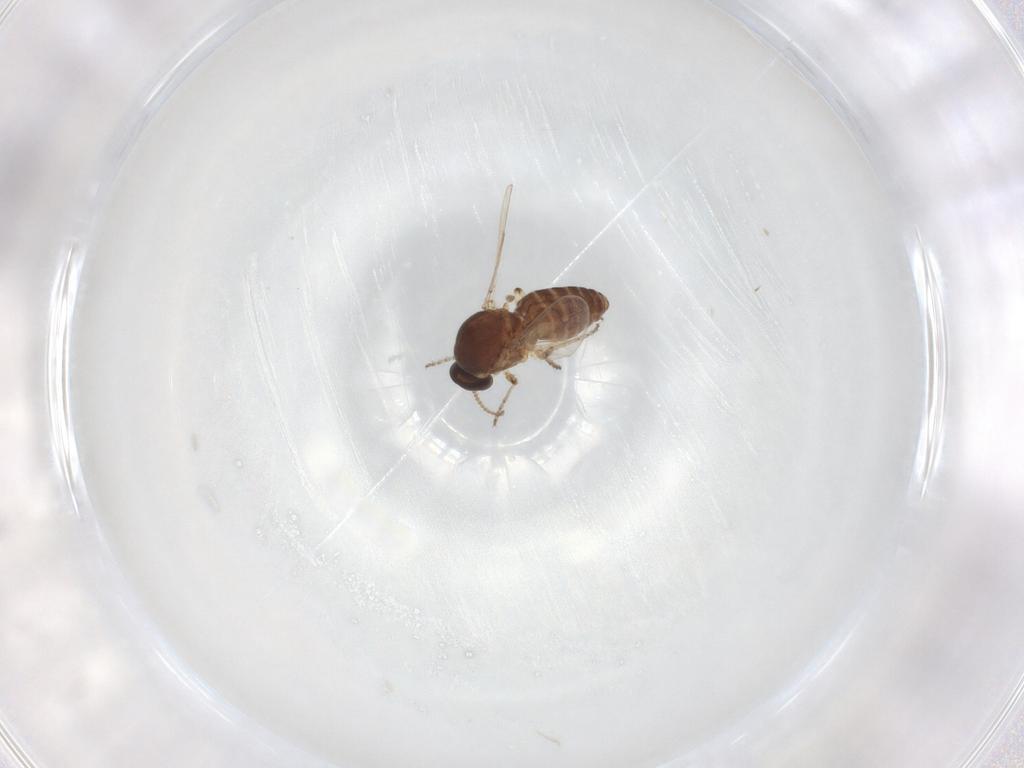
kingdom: Animalia
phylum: Arthropoda
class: Insecta
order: Diptera
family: Ceratopogonidae
